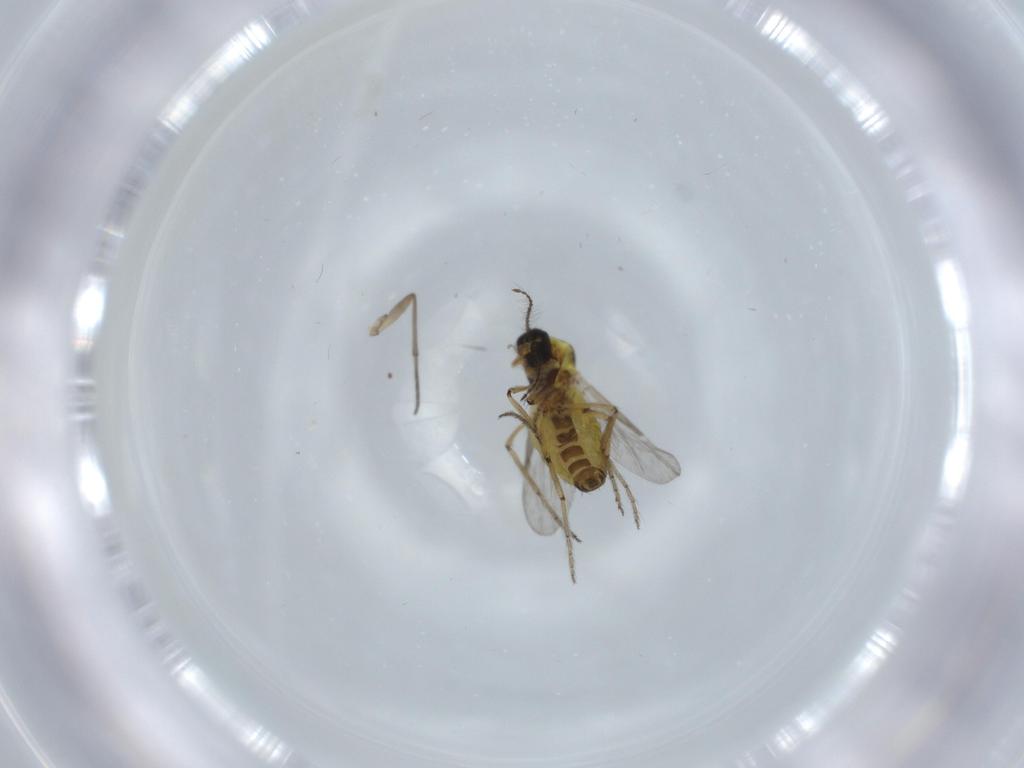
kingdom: Animalia
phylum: Arthropoda
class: Insecta
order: Diptera
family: Ceratopogonidae
